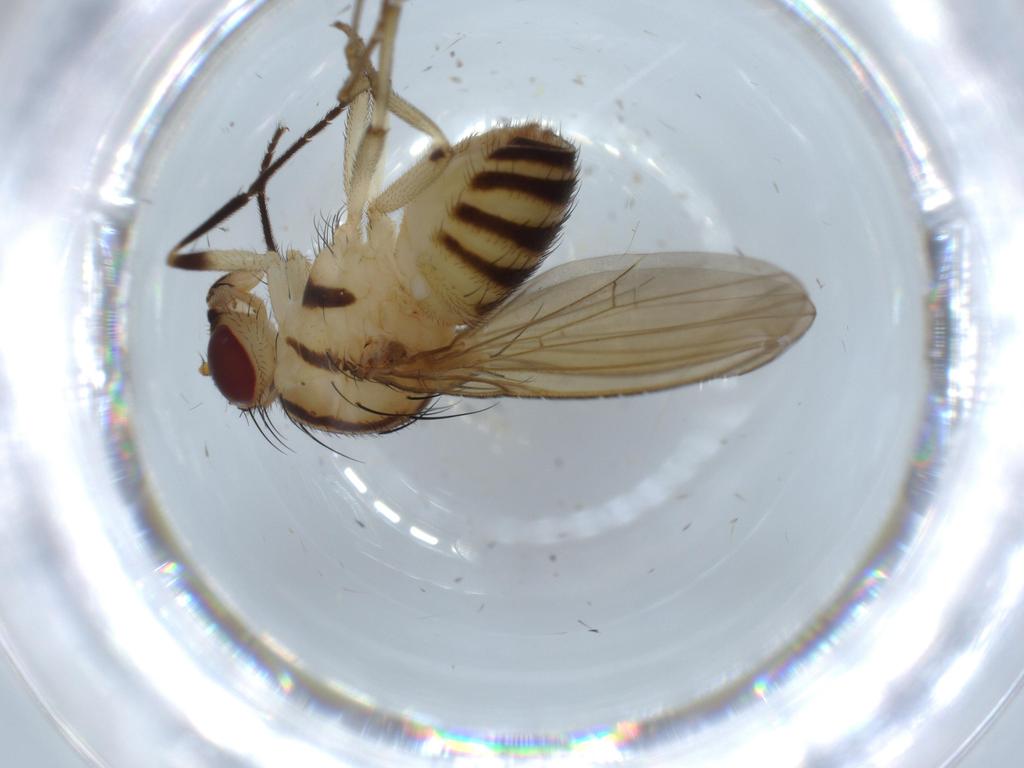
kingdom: Animalia
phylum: Arthropoda
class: Insecta
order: Diptera
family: Lauxaniidae
